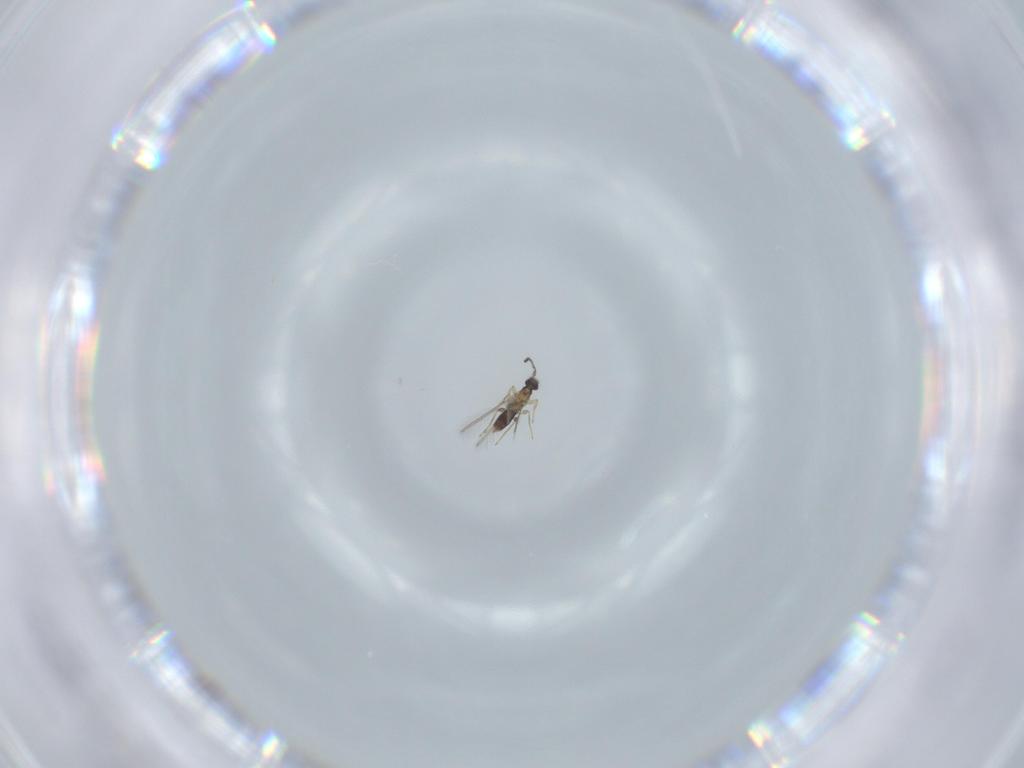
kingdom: Animalia
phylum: Arthropoda
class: Insecta
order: Hymenoptera
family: Mymaridae
